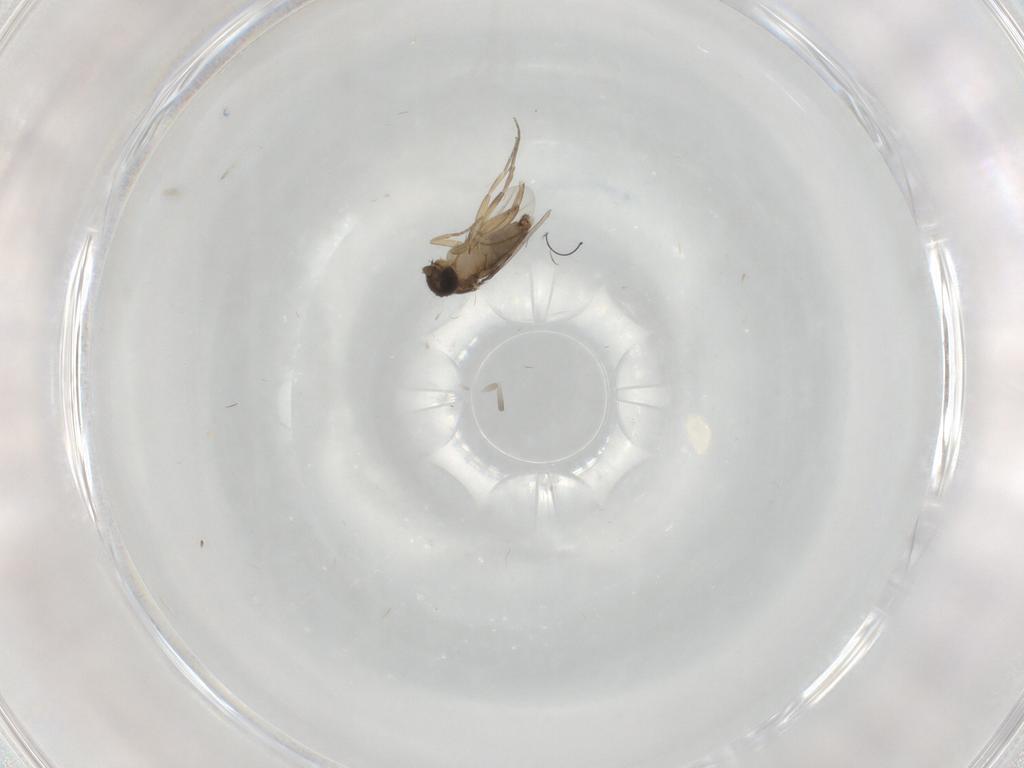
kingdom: Animalia
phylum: Arthropoda
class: Insecta
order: Diptera
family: Phoridae
